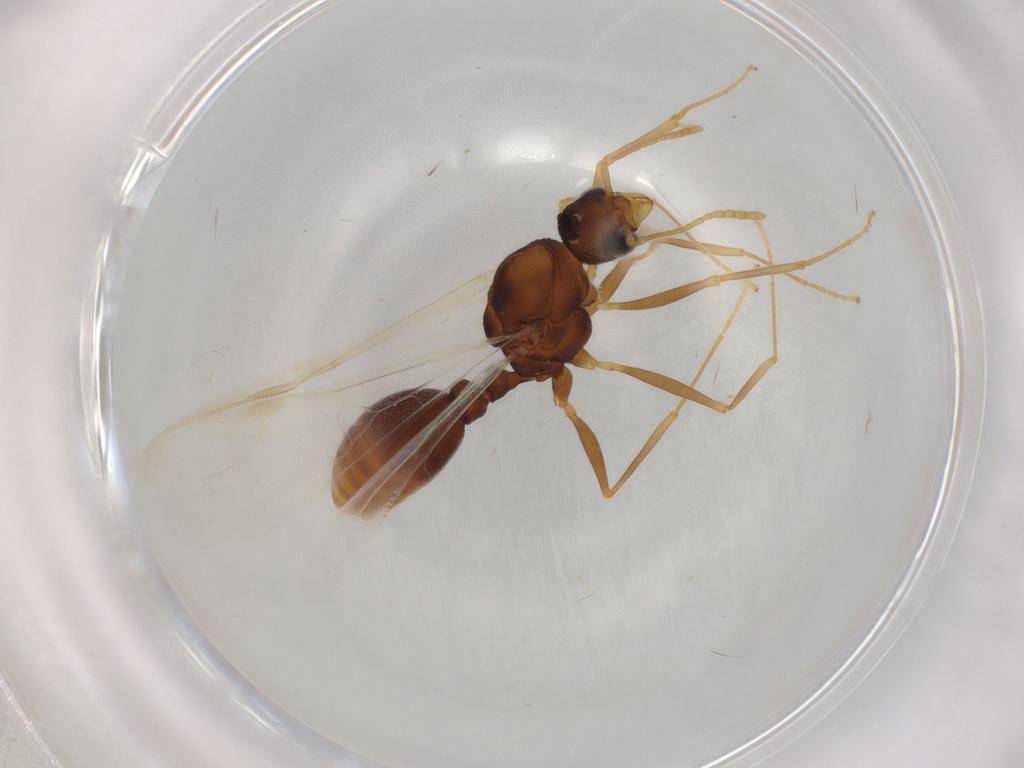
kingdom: Animalia
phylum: Arthropoda
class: Insecta
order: Hymenoptera
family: Formicidae
